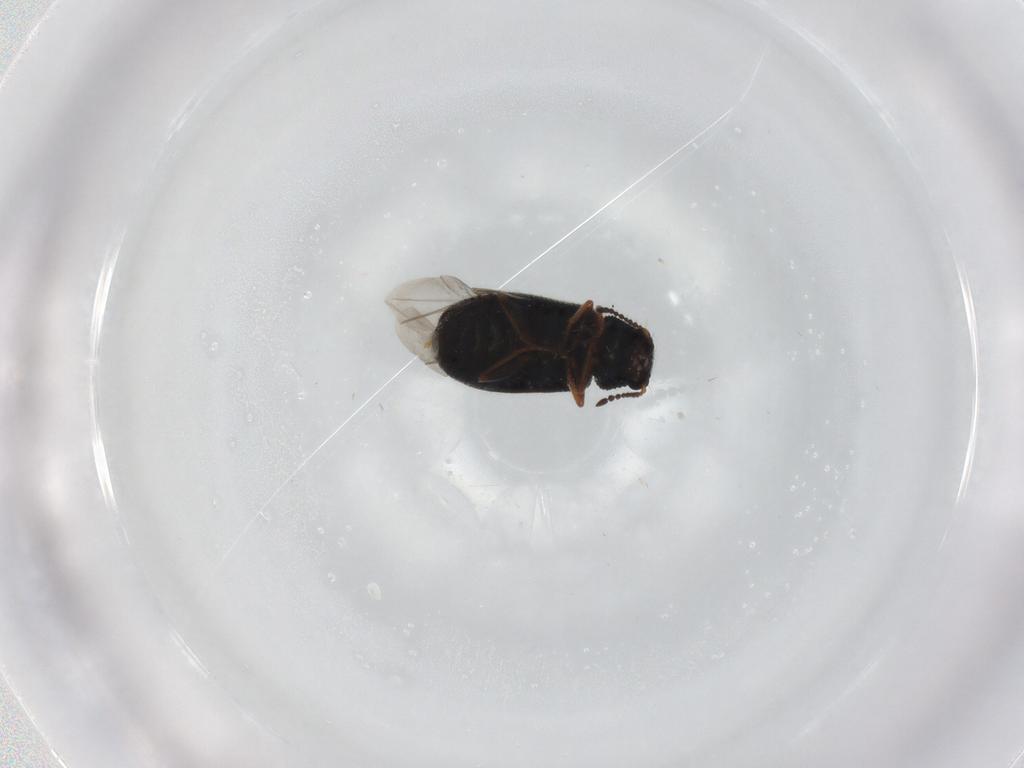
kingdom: Animalia
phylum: Arthropoda
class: Insecta
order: Coleoptera
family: Melyridae
